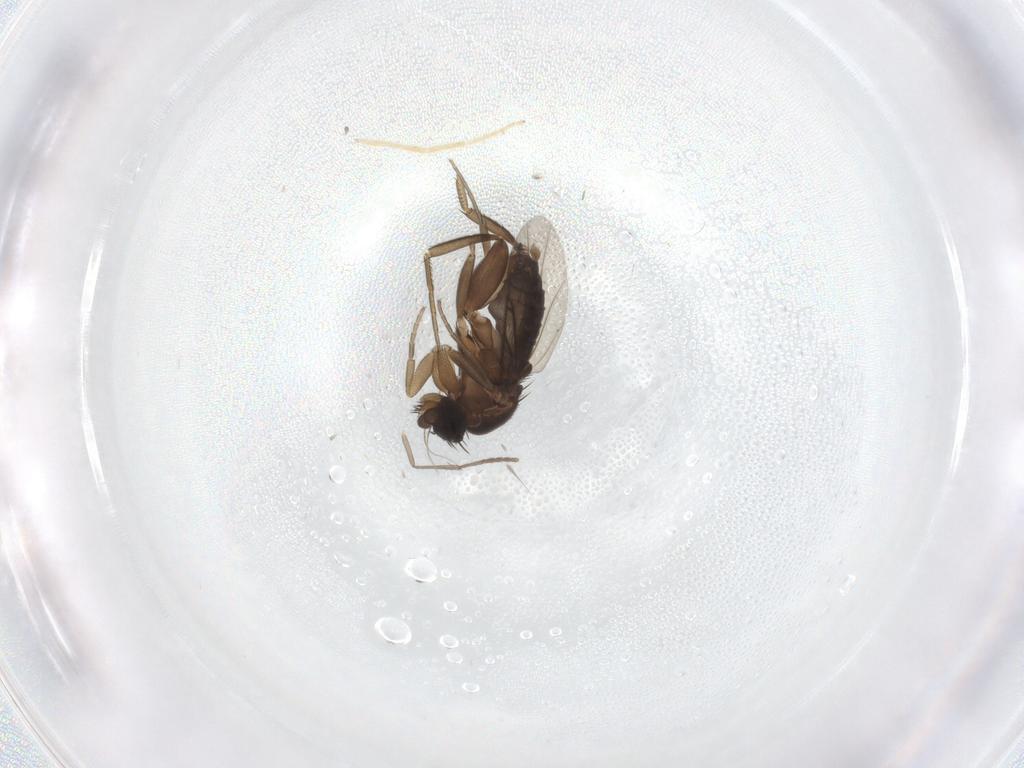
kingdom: Animalia
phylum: Arthropoda
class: Insecta
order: Diptera
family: Phoridae
